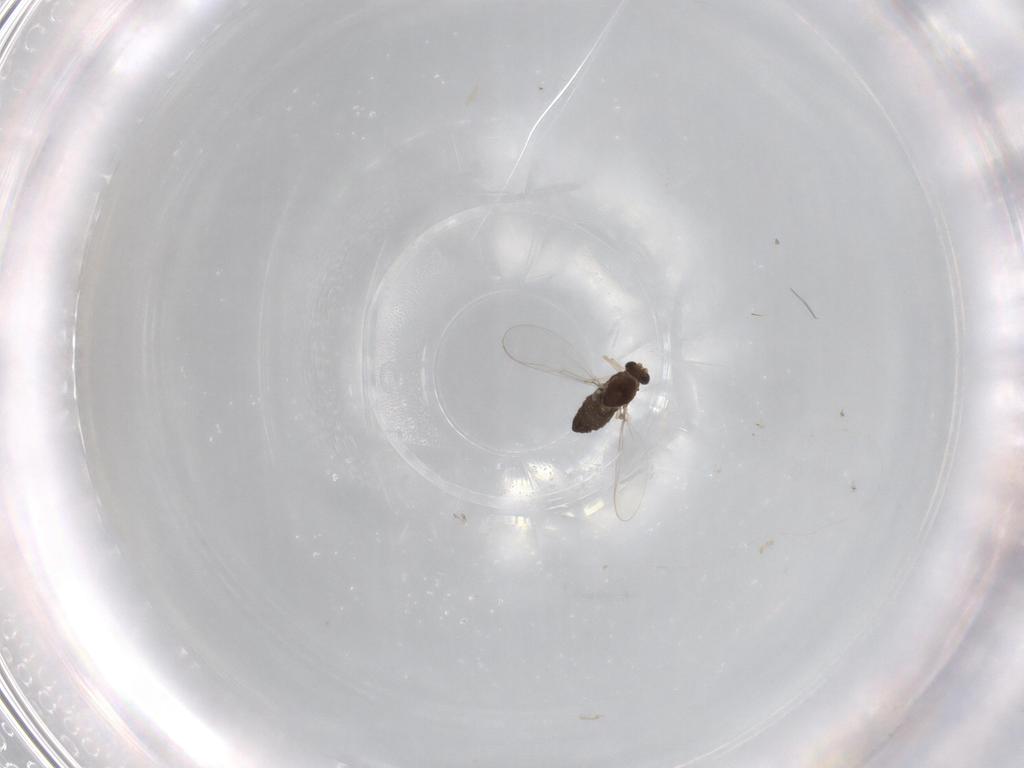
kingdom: Animalia
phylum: Arthropoda
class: Insecta
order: Diptera
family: Chironomidae
